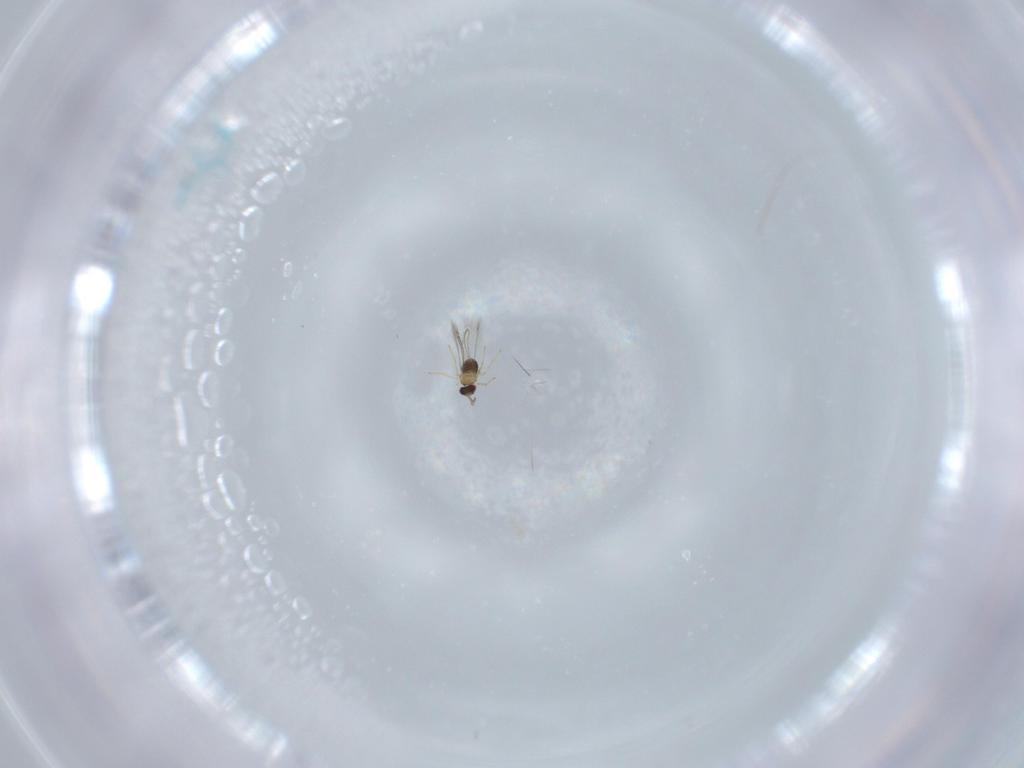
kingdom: Animalia
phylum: Arthropoda
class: Insecta
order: Hymenoptera
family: Mymaridae
